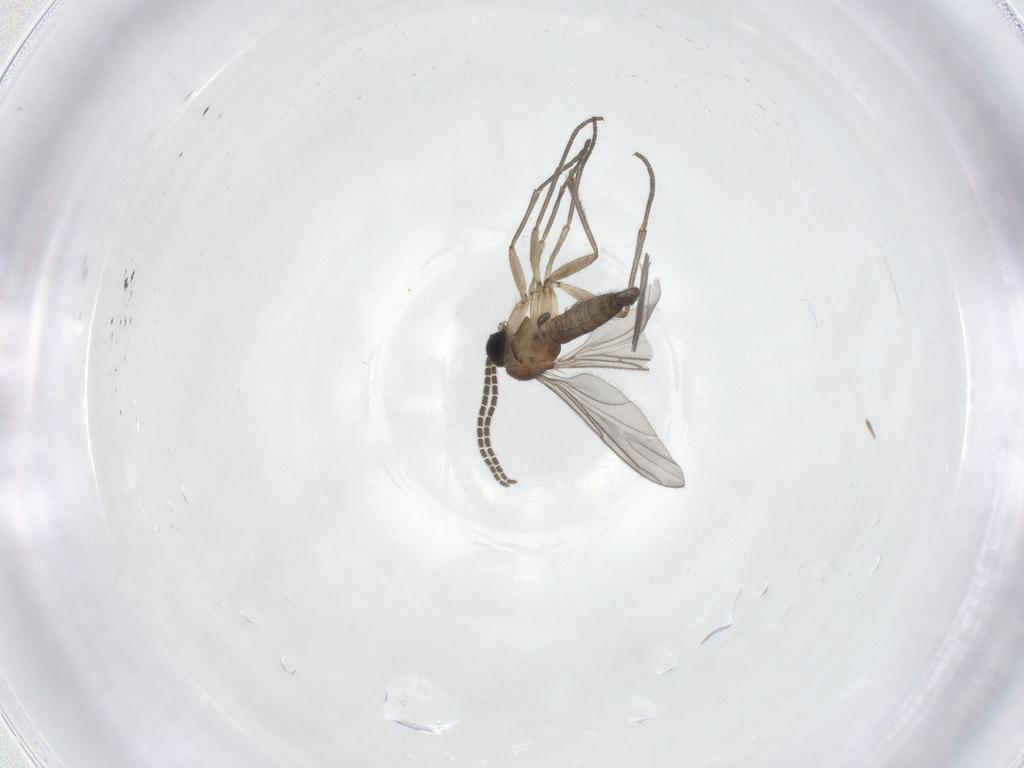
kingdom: Animalia
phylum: Arthropoda
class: Insecta
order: Diptera
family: Sciaridae
